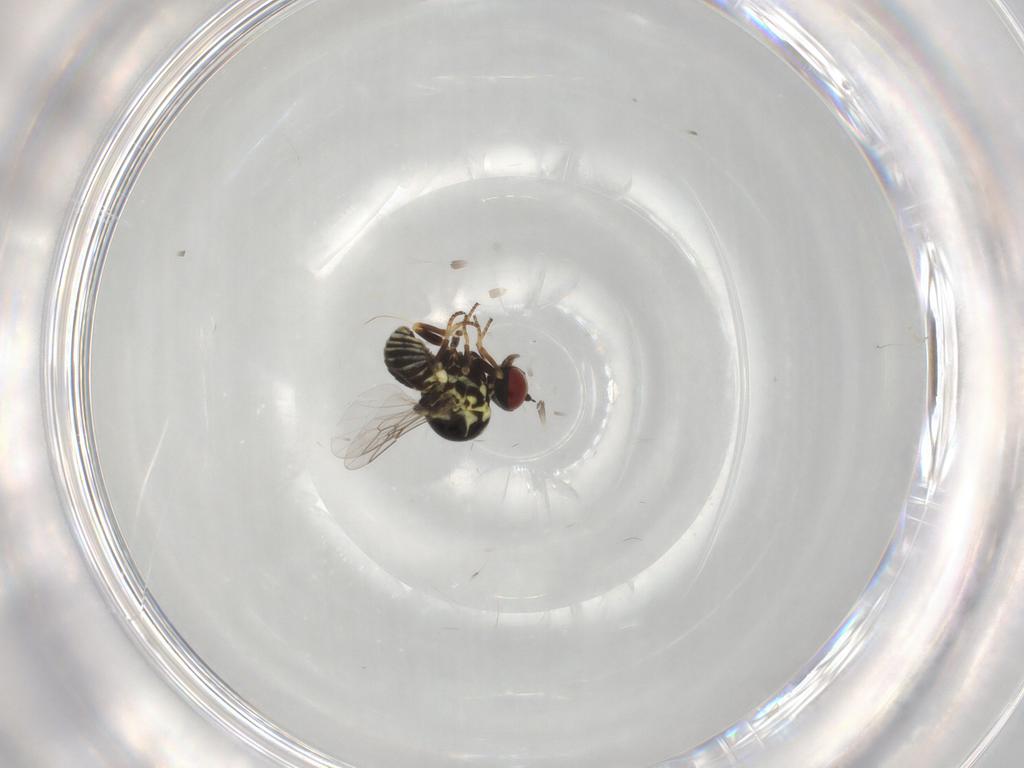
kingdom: Animalia
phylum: Arthropoda
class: Insecta
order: Diptera
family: Mythicomyiidae
